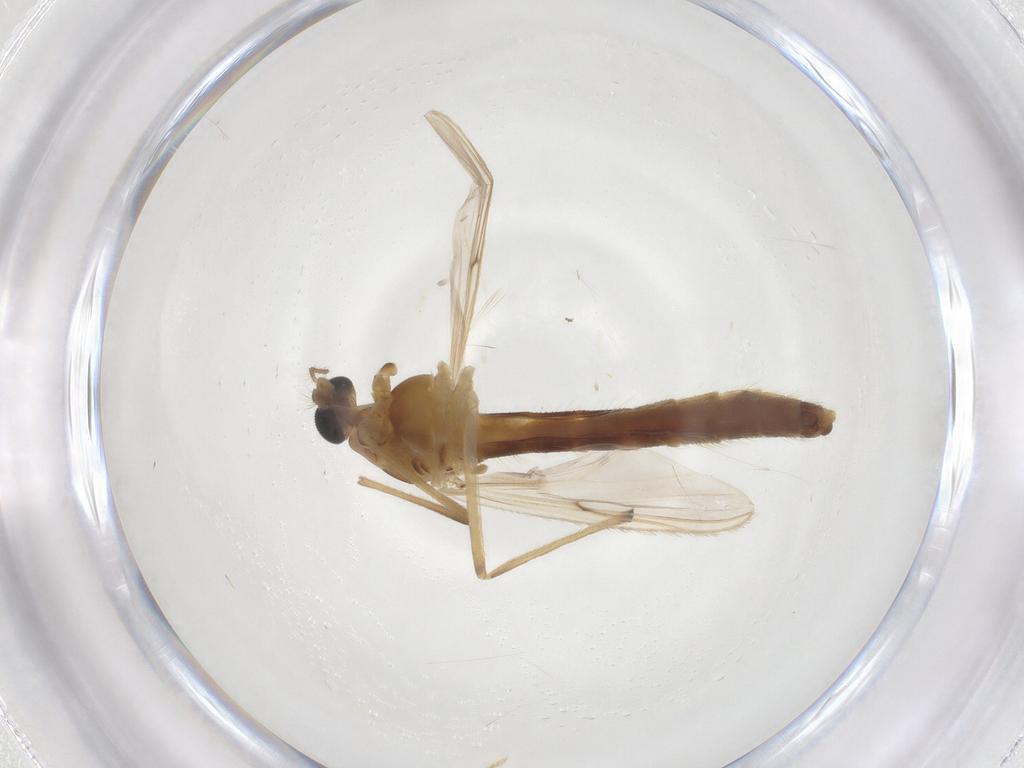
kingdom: Animalia
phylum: Arthropoda
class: Insecta
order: Diptera
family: Chironomidae
